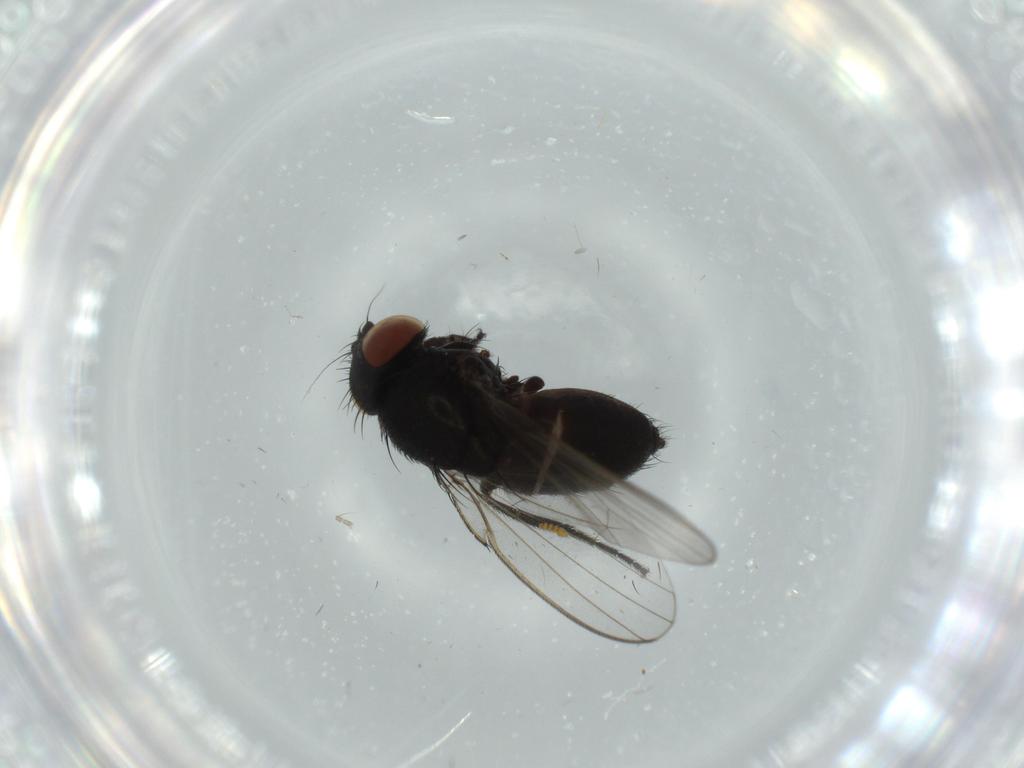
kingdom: Animalia
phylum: Arthropoda
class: Insecta
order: Diptera
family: Phoridae
